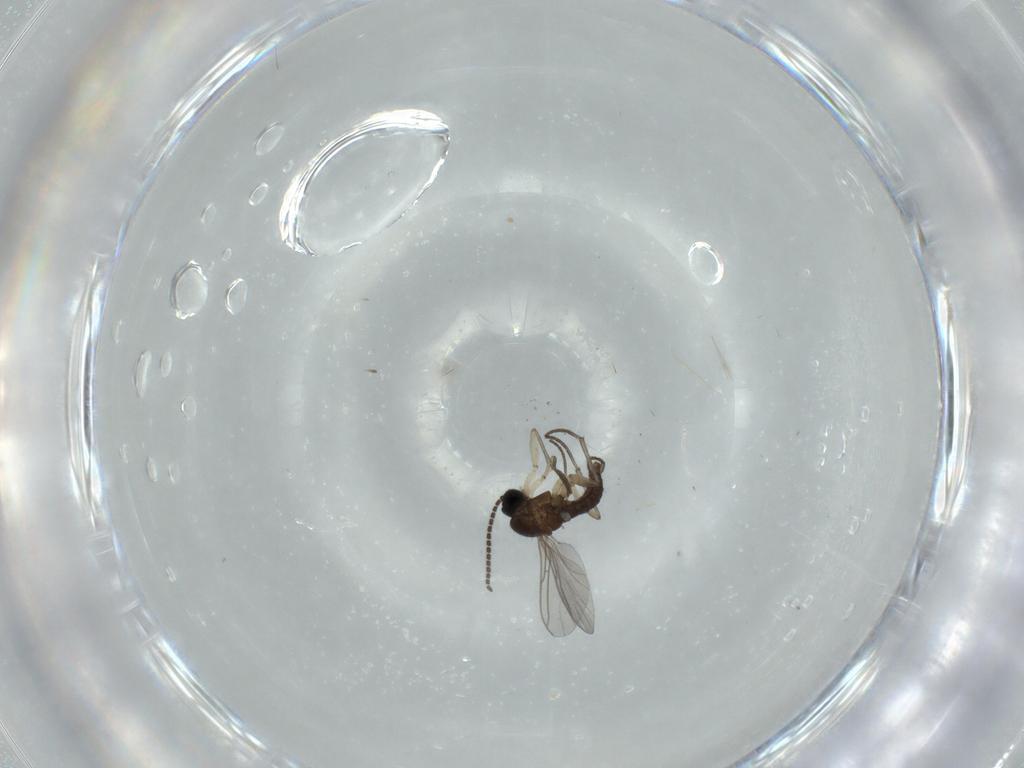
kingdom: Animalia
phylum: Arthropoda
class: Insecta
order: Diptera
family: Sciaridae
